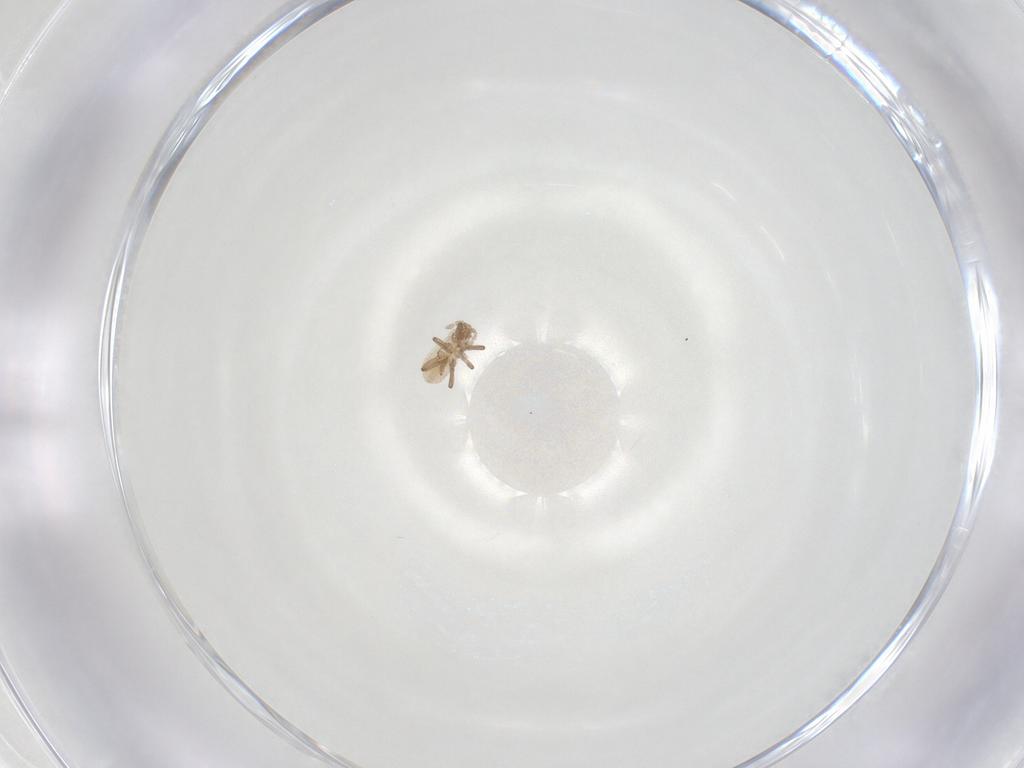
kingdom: Animalia
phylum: Arthropoda
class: Insecta
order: Hemiptera
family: Aphididae
